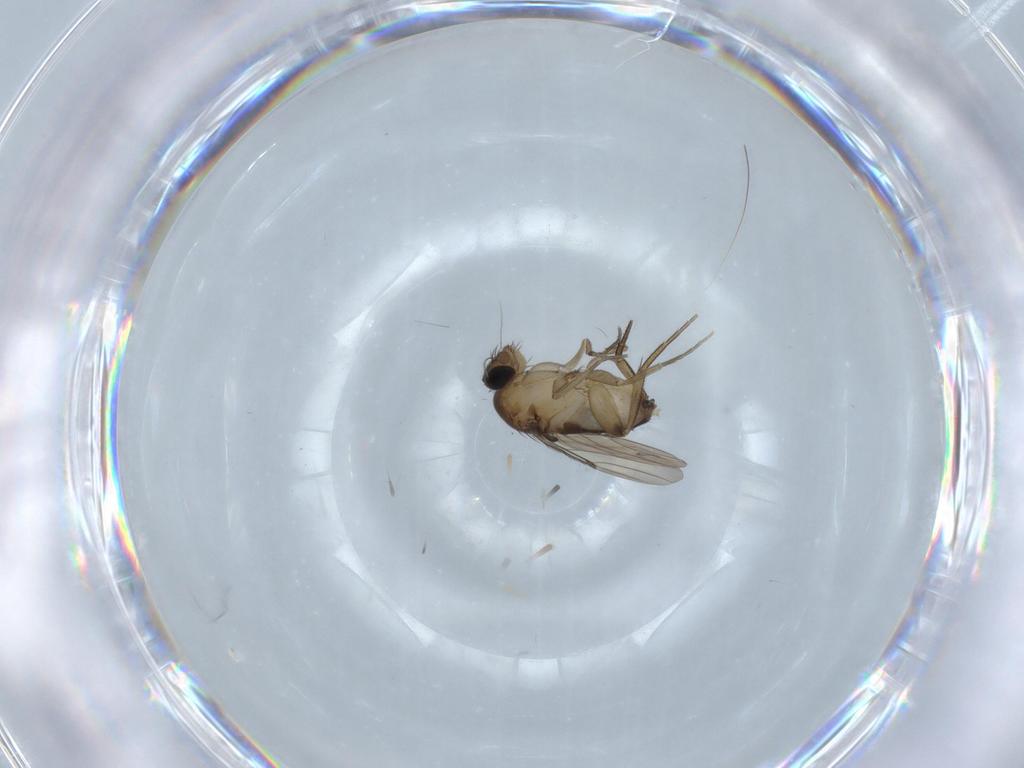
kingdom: Animalia
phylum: Arthropoda
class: Insecta
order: Diptera
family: Phoridae
